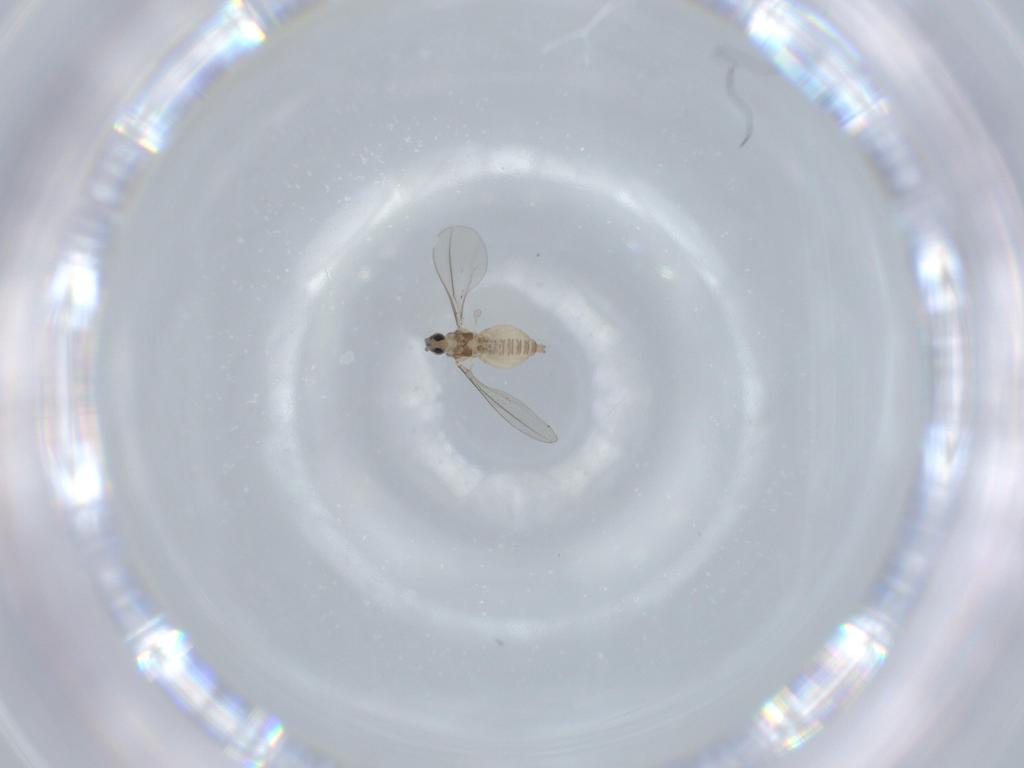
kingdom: Animalia
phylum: Arthropoda
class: Insecta
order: Diptera
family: Cecidomyiidae
